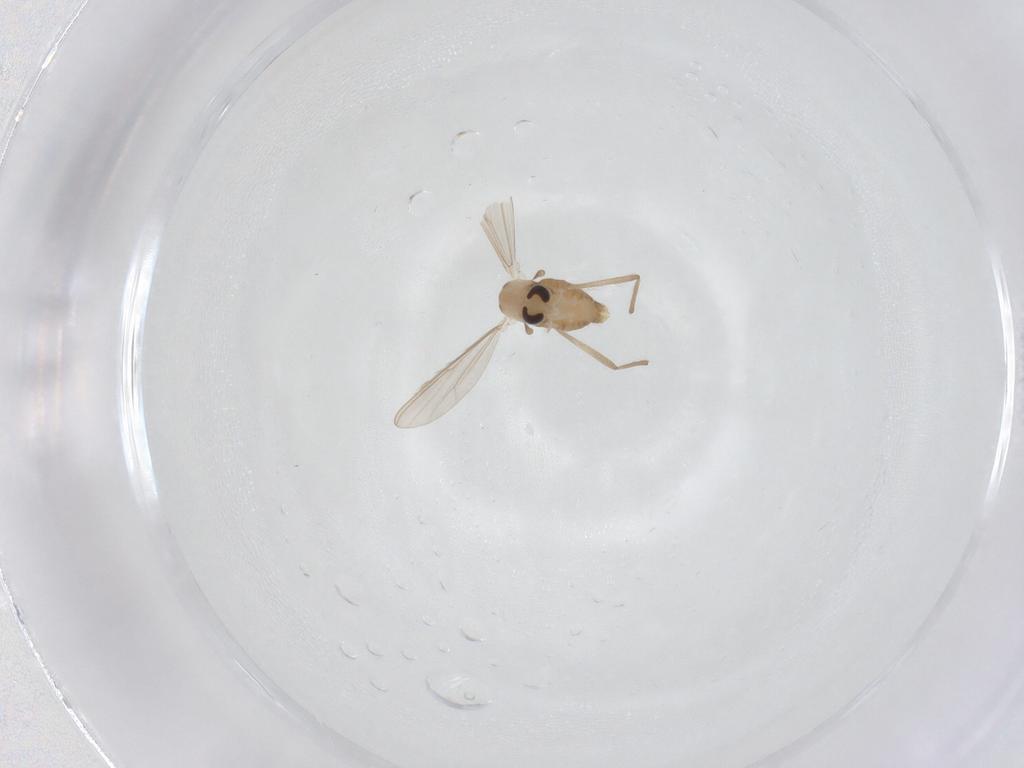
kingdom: Animalia
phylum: Arthropoda
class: Insecta
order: Diptera
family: Chironomidae
